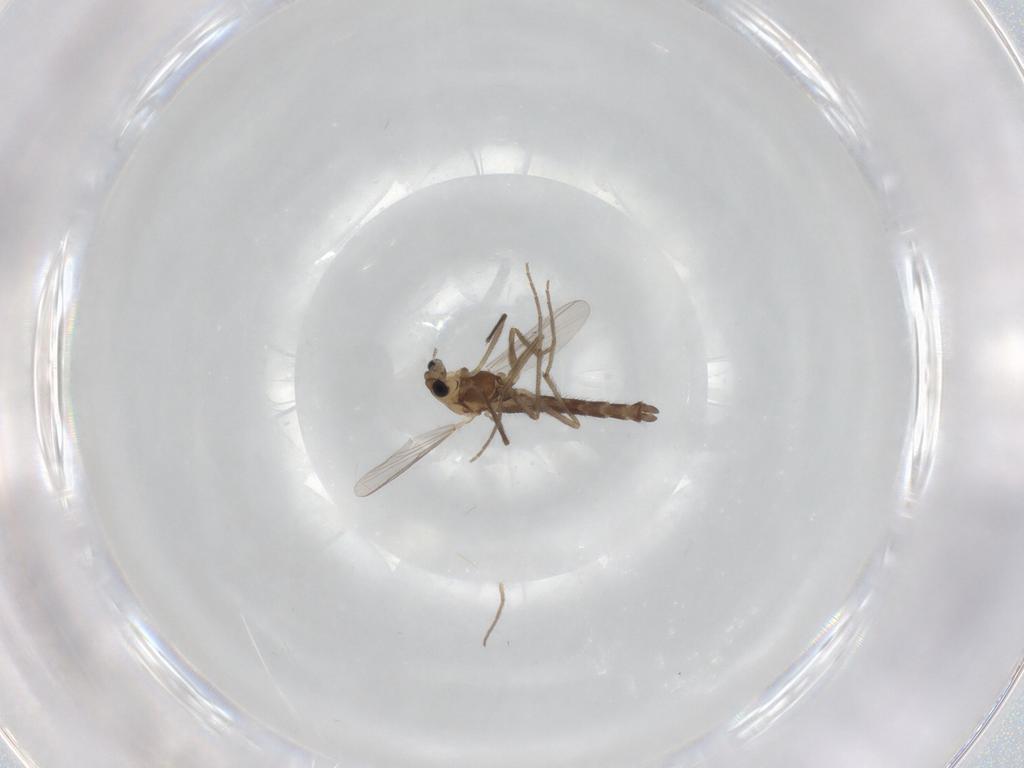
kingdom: Animalia
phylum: Arthropoda
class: Insecta
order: Diptera
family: Chironomidae
